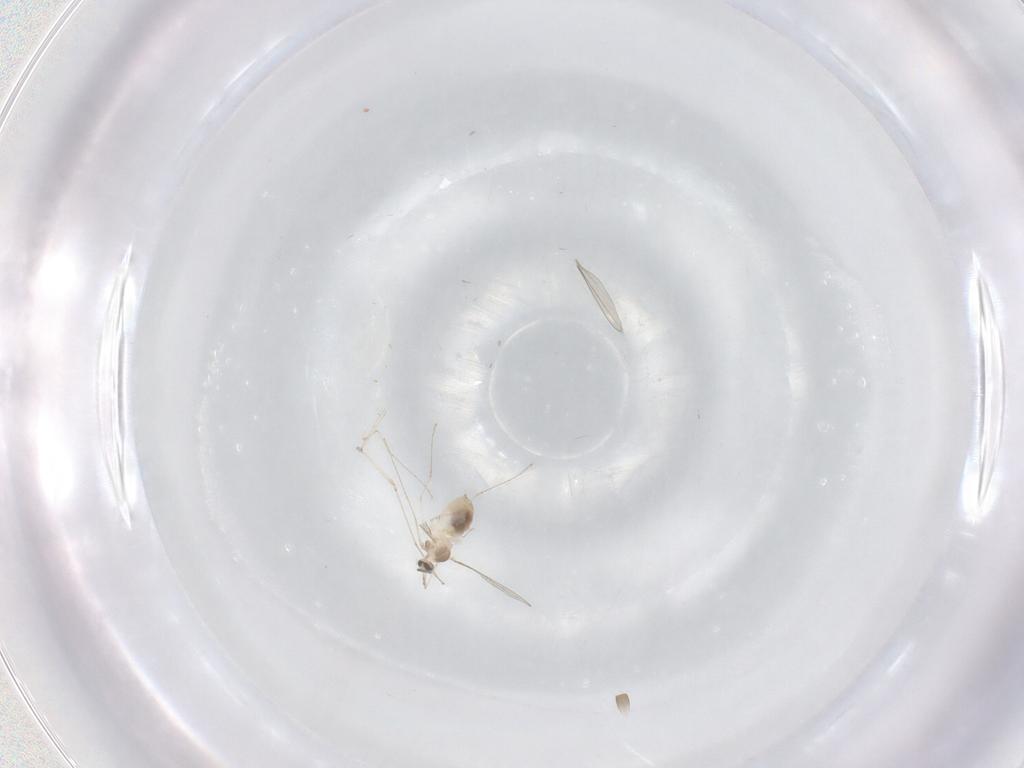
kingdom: Animalia
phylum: Arthropoda
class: Insecta
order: Diptera
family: Cecidomyiidae
